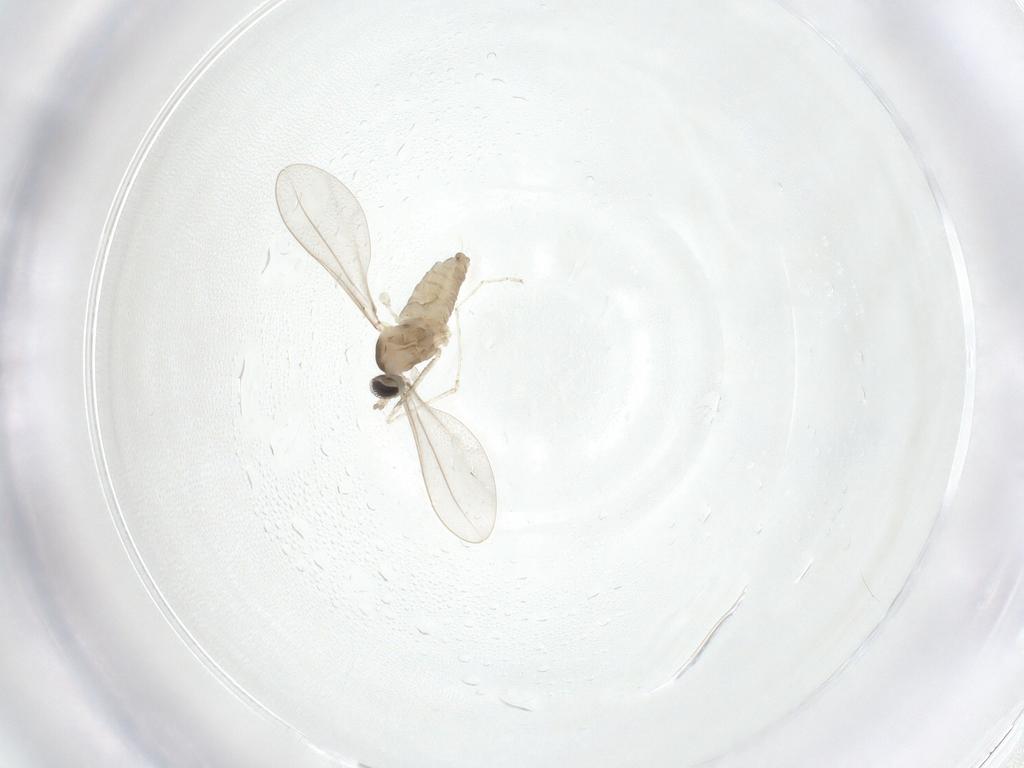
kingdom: Animalia
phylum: Arthropoda
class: Insecta
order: Diptera
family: Cecidomyiidae
